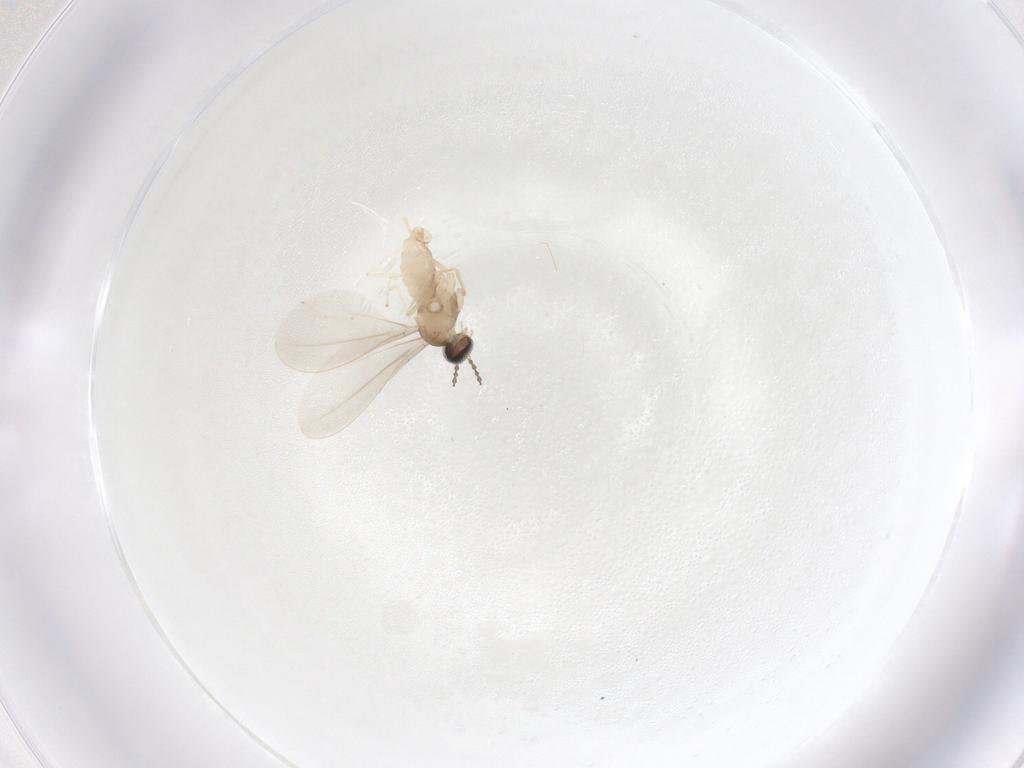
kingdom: Animalia
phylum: Arthropoda
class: Insecta
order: Diptera
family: Cecidomyiidae
